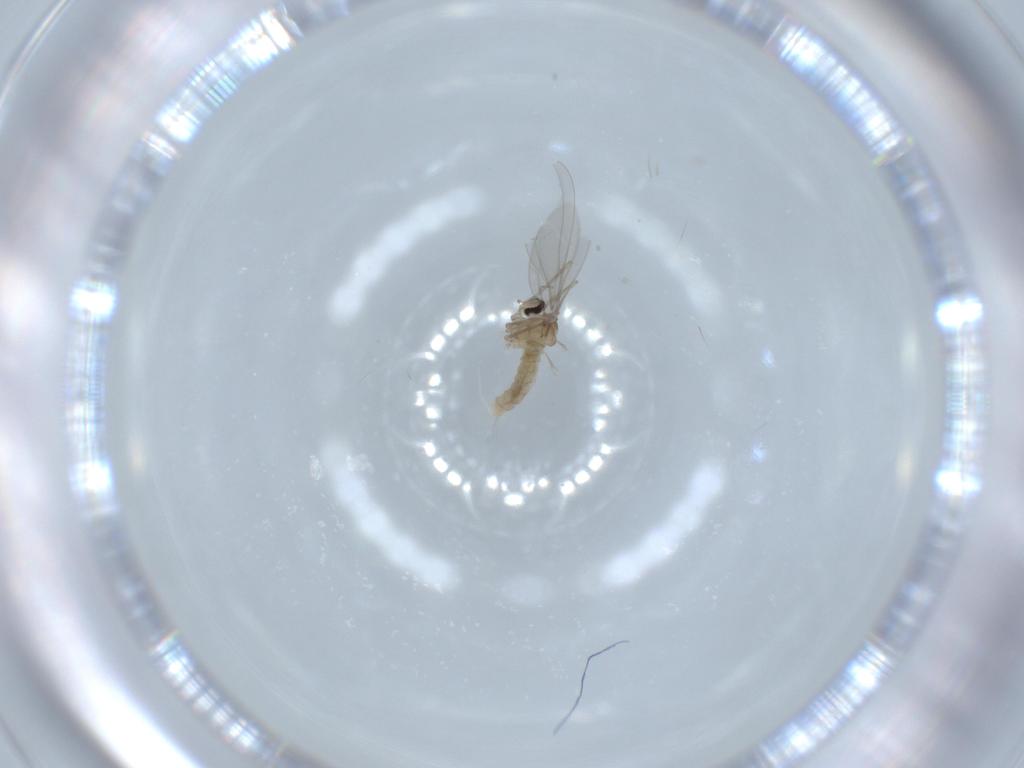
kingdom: Animalia
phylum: Arthropoda
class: Insecta
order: Diptera
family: Cecidomyiidae
